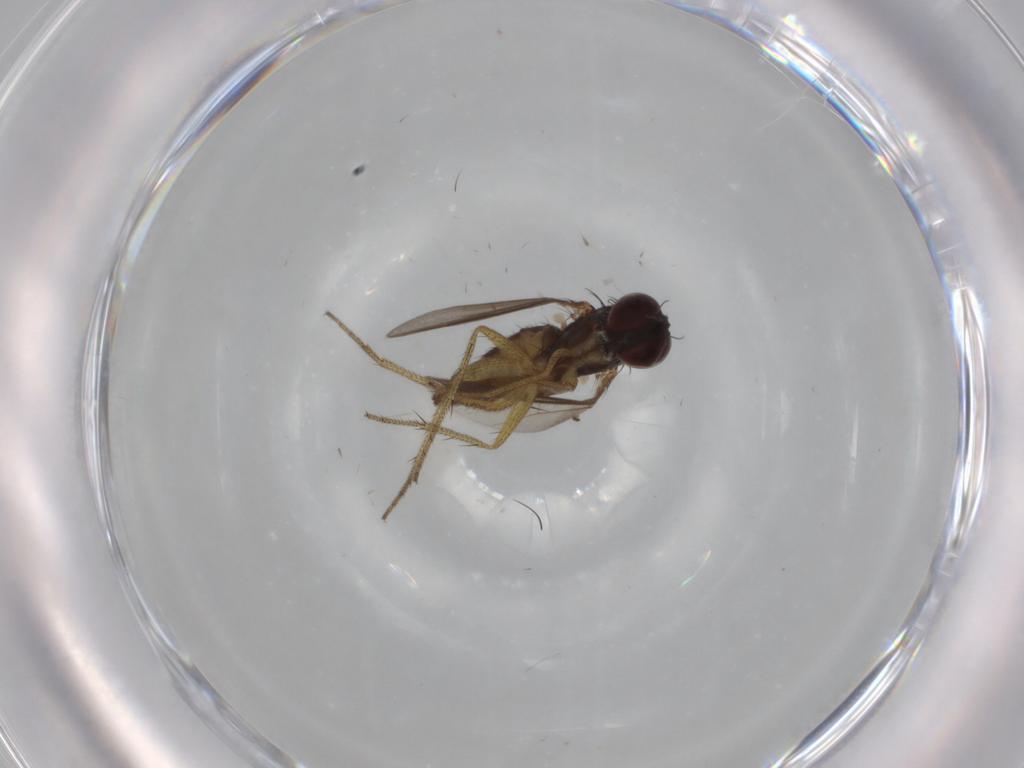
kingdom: Animalia
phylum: Arthropoda
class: Insecta
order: Diptera
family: Dolichopodidae
